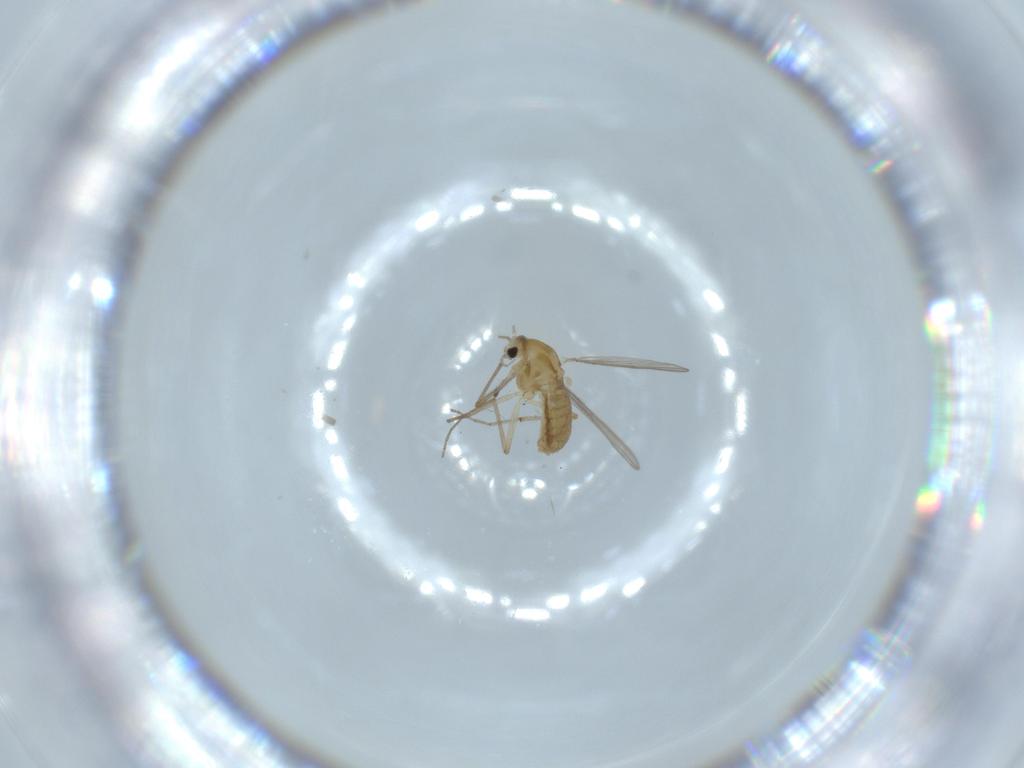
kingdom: Animalia
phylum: Arthropoda
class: Insecta
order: Diptera
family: Chironomidae
